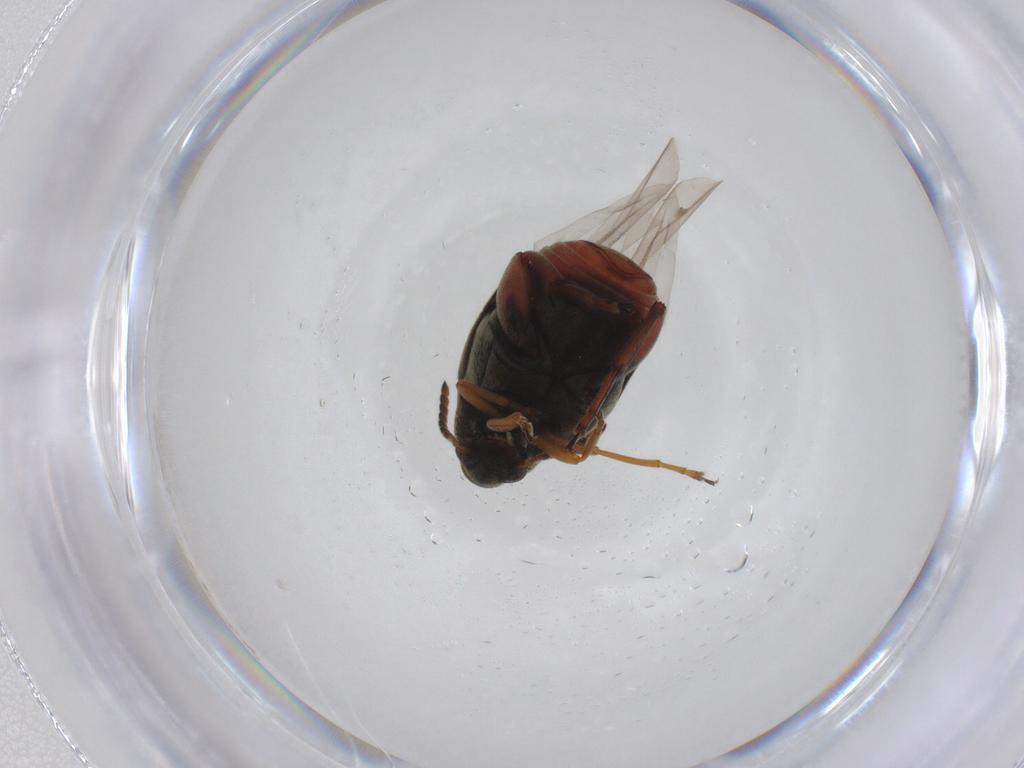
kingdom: Animalia
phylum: Arthropoda
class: Insecta
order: Coleoptera
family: Chrysomelidae
